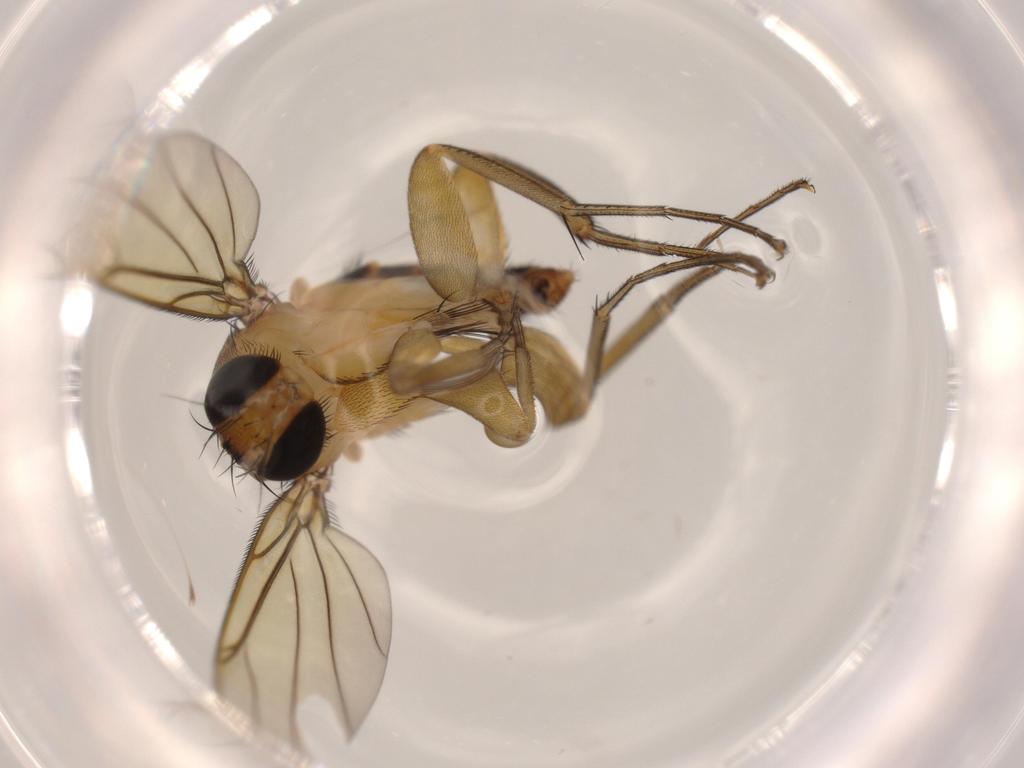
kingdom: Animalia
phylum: Arthropoda
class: Insecta
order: Diptera
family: Phoridae
